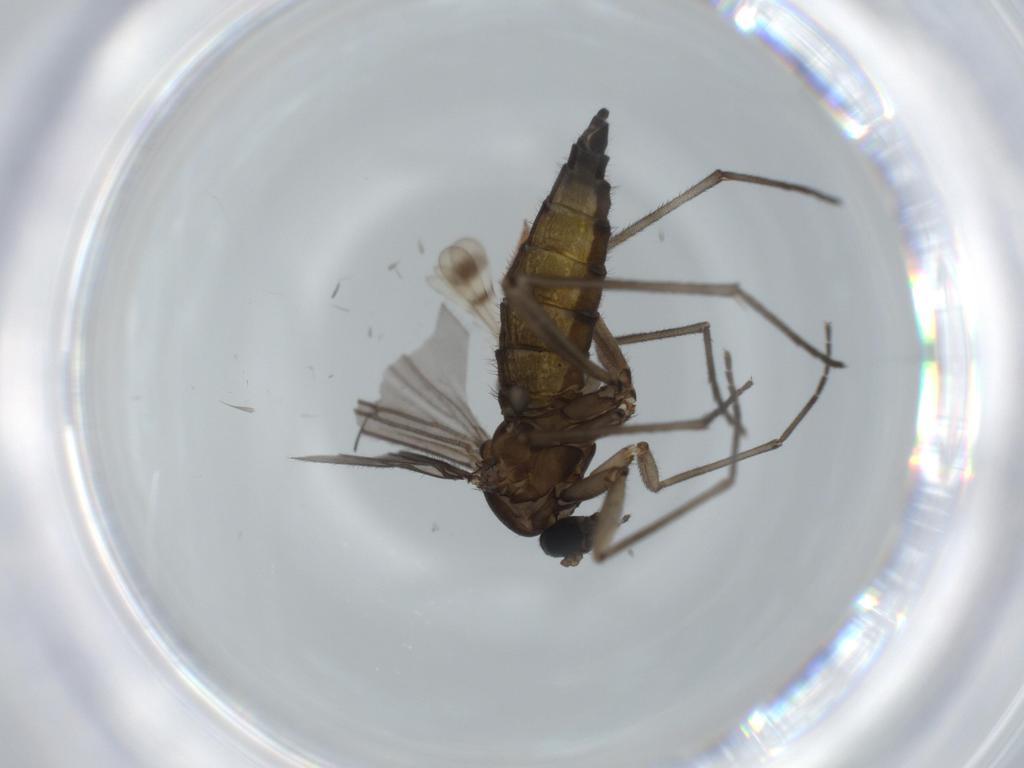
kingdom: Animalia
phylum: Arthropoda
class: Insecta
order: Diptera
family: Sciaridae
